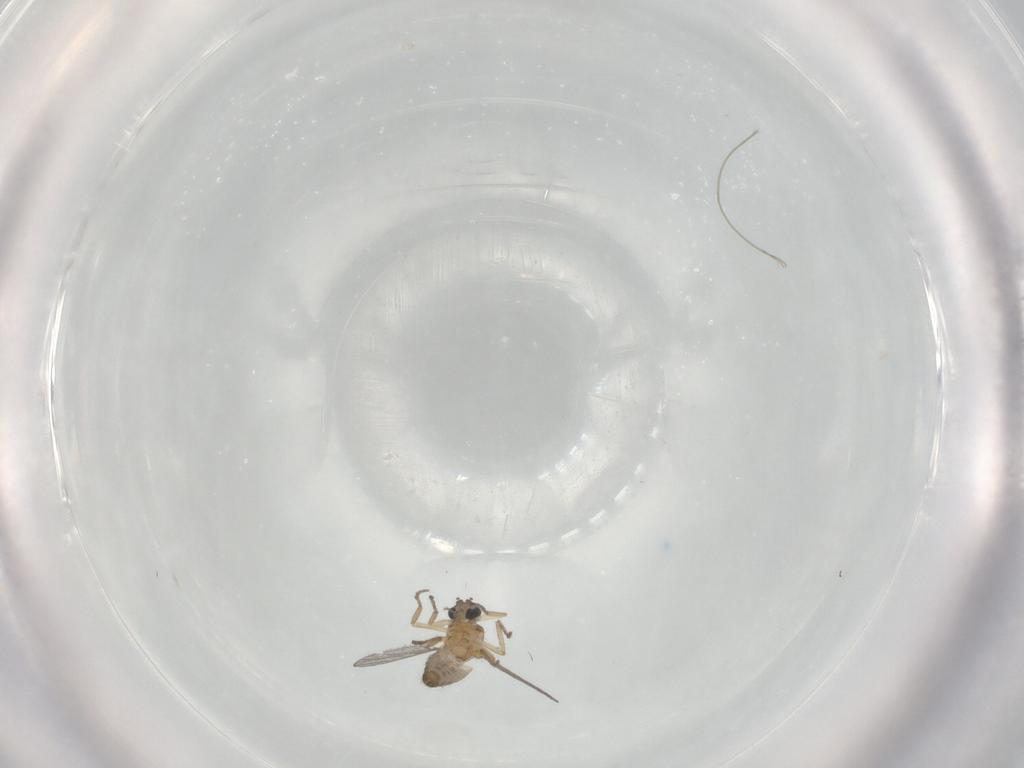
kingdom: Animalia
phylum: Arthropoda
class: Insecta
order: Diptera
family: Ceratopogonidae
